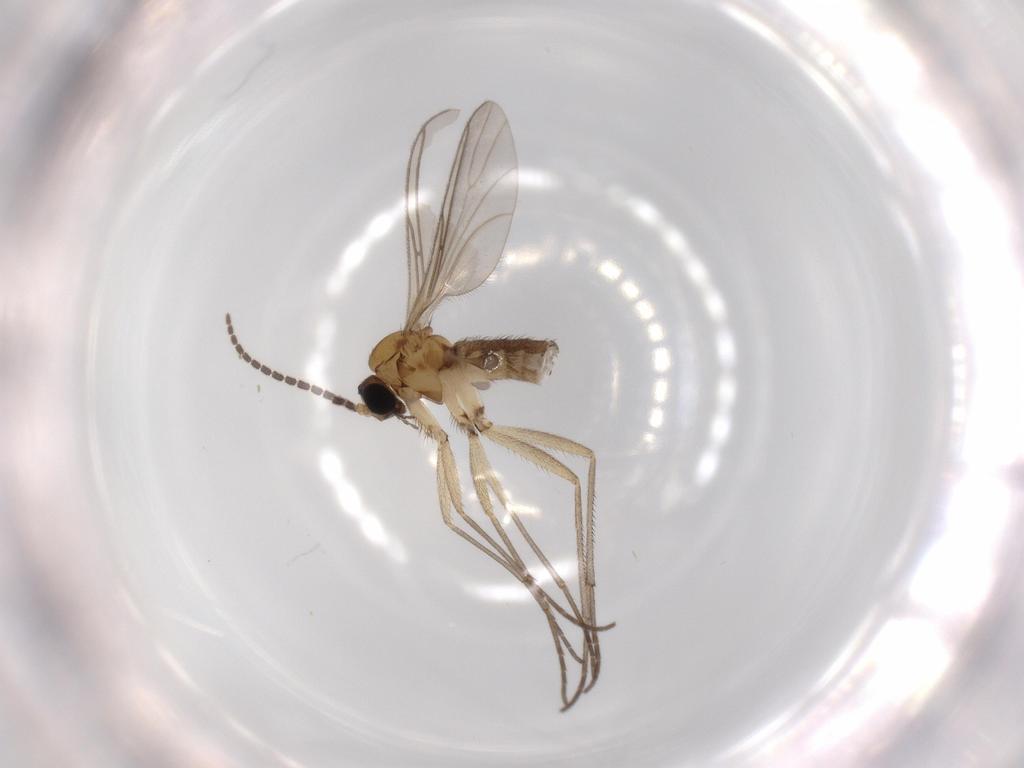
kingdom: Animalia
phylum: Arthropoda
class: Insecta
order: Diptera
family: Sciaridae
